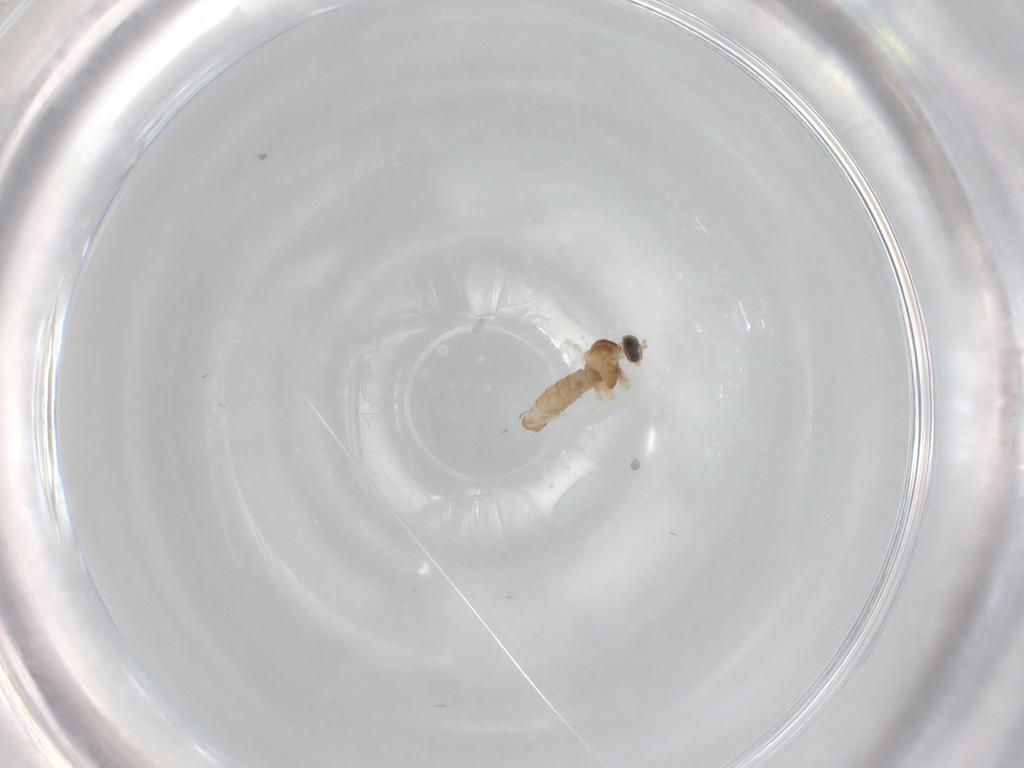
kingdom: Animalia
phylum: Arthropoda
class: Insecta
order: Diptera
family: Cecidomyiidae
